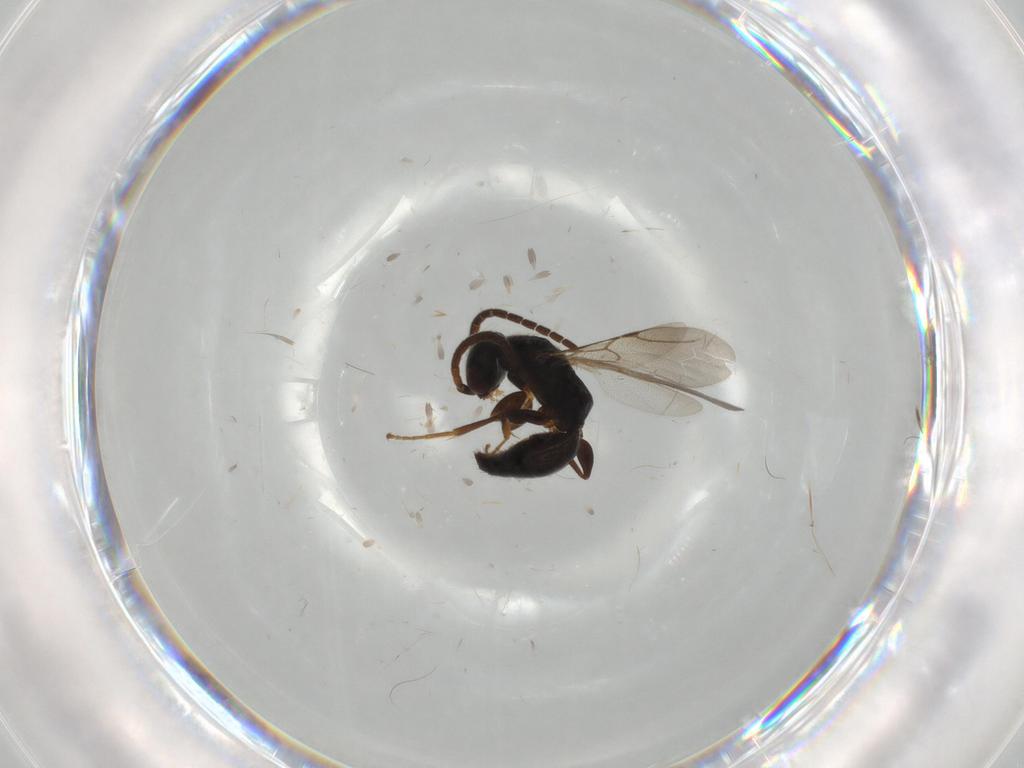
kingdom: Animalia
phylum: Arthropoda
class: Insecta
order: Hymenoptera
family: Bethylidae
